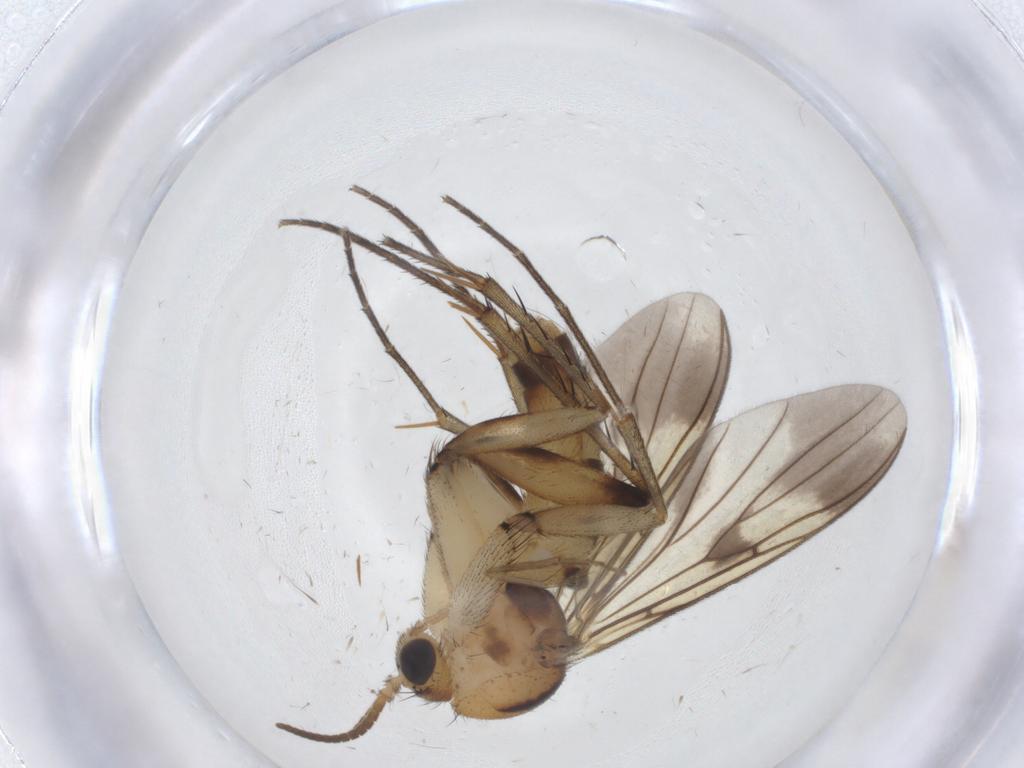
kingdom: Animalia
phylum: Arthropoda
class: Insecta
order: Diptera
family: Mycetophilidae
